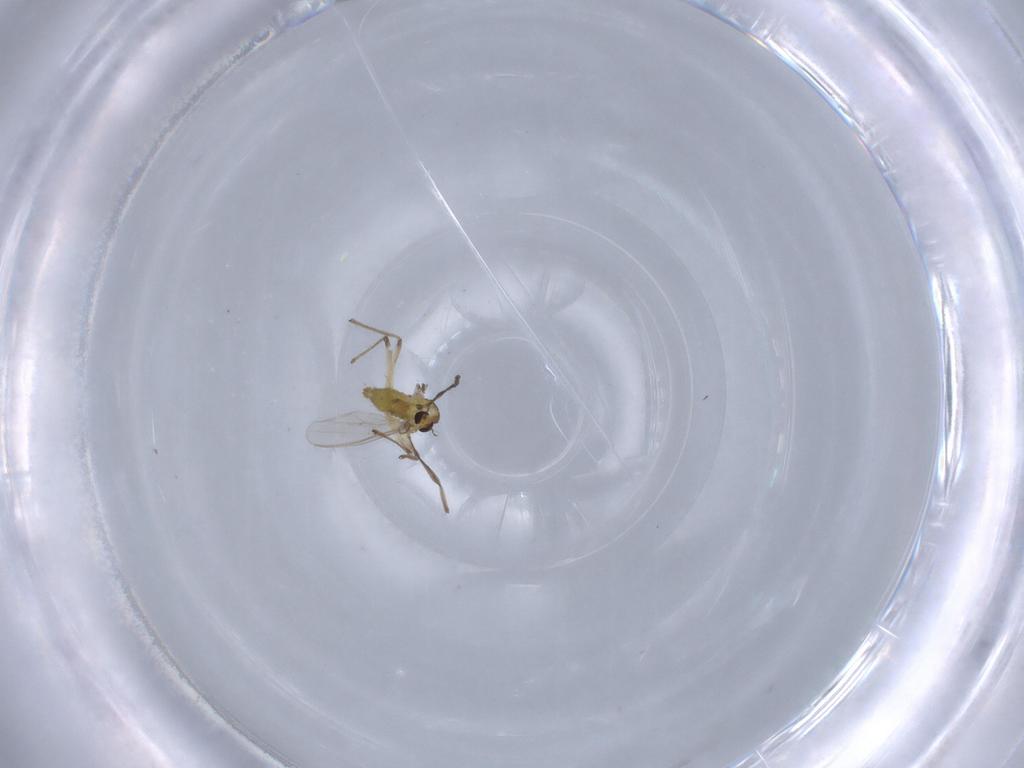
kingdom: Animalia
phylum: Arthropoda
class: Insecta
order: Diptera
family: Chironomidae
